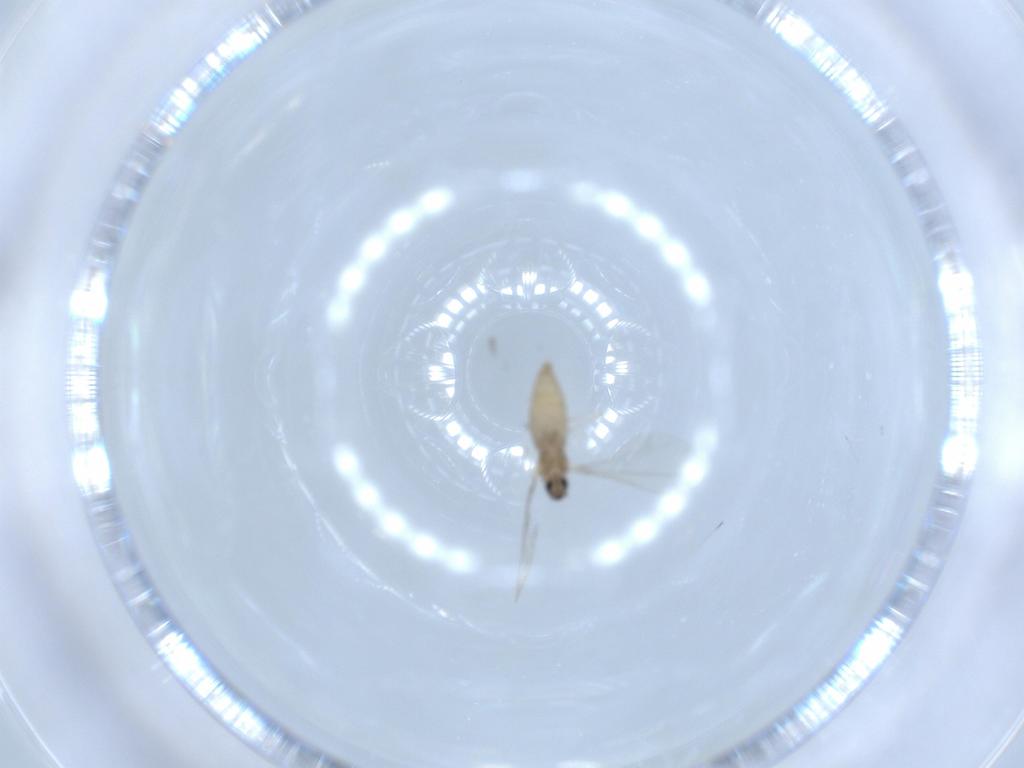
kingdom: Animalia
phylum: Arthropoda
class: Insecta
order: Diptera
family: Sciaridae
